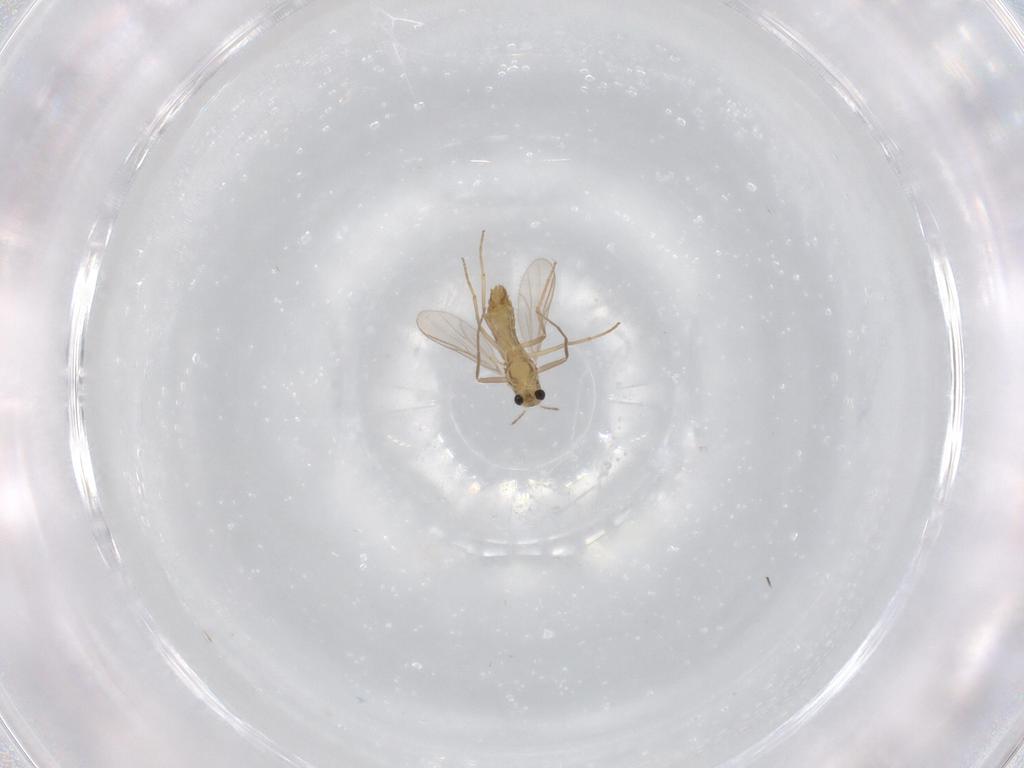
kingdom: Animalia
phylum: Arthropoda
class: Insecta
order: Diptera
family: Chironomidae
